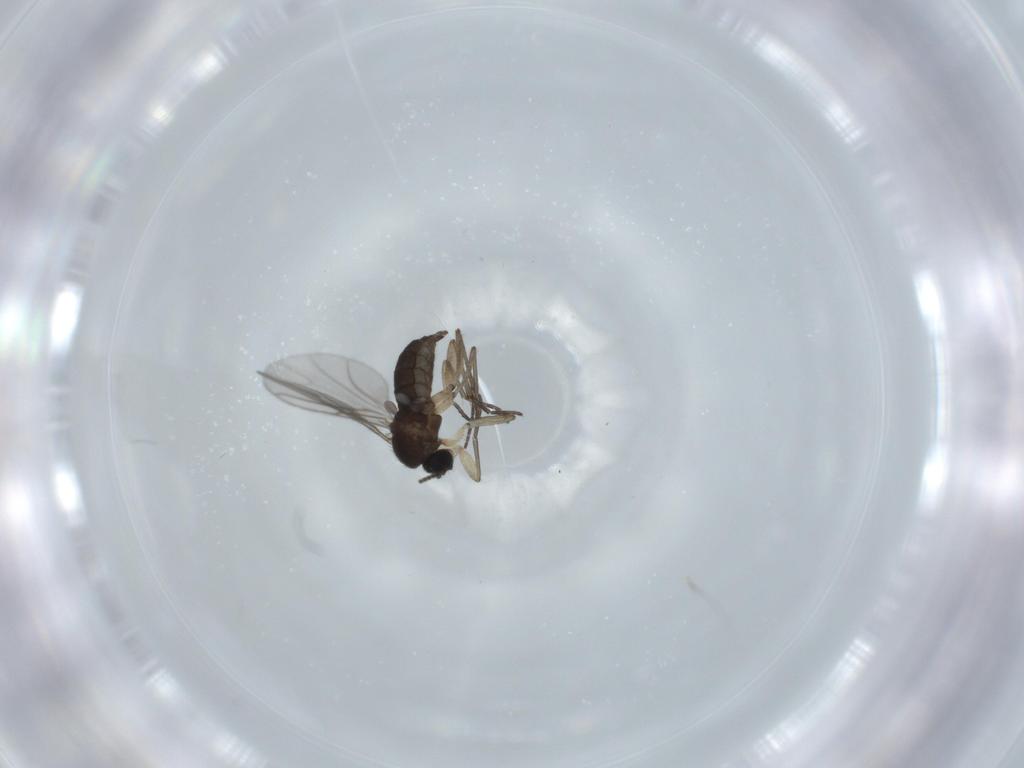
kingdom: Animalia
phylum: Arthropoda
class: Insecta
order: Diptera
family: Sciaridae
